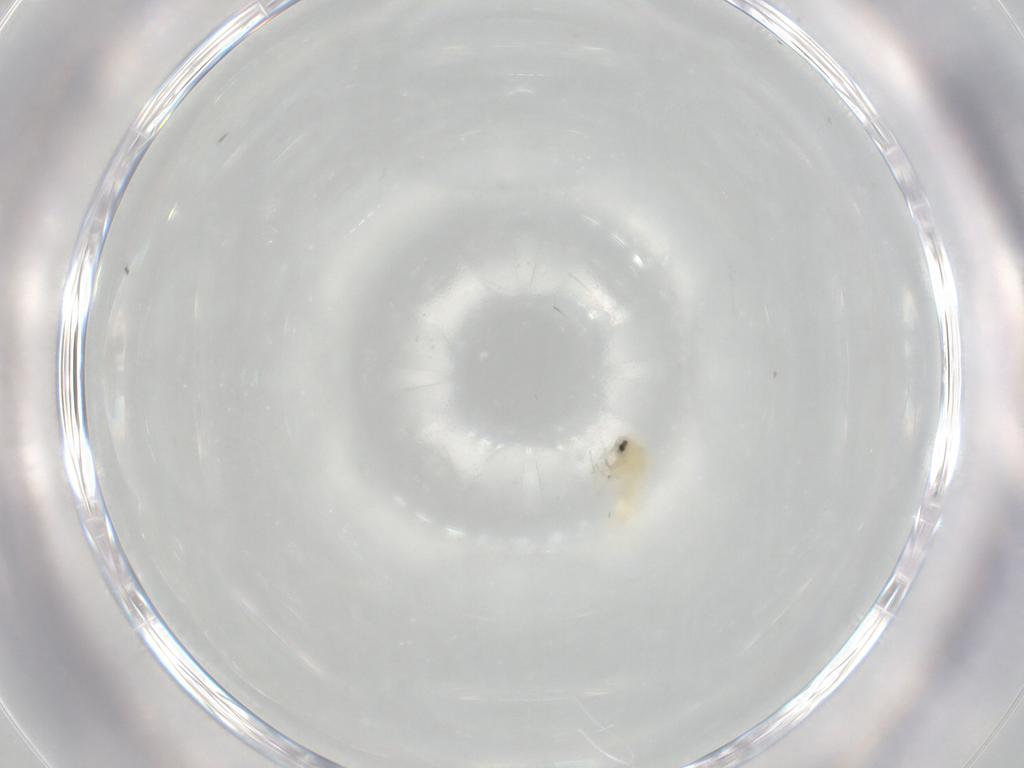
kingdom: Animalia
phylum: Arthropoda
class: Insecta
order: Diptera
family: Chironomidae
